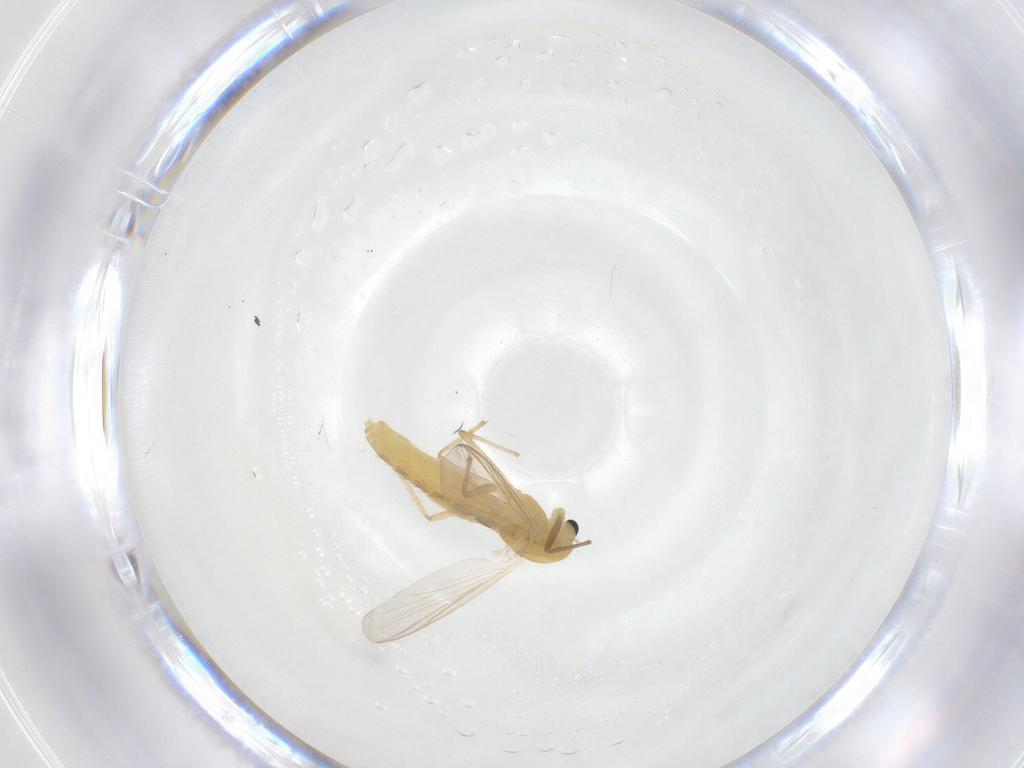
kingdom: Animalia
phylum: Arthropoda
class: Insecta
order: Diptera
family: Chironomidae
